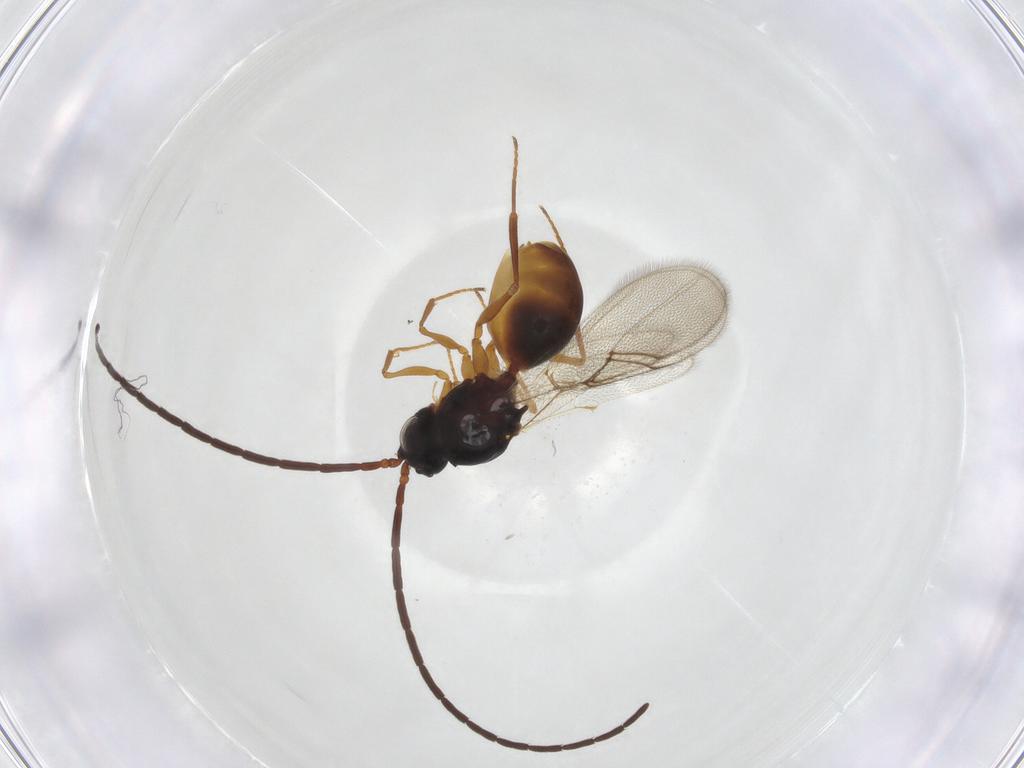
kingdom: Animalia
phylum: Arthropoda
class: Insecta
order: Hymenoptera
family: Figitidae
